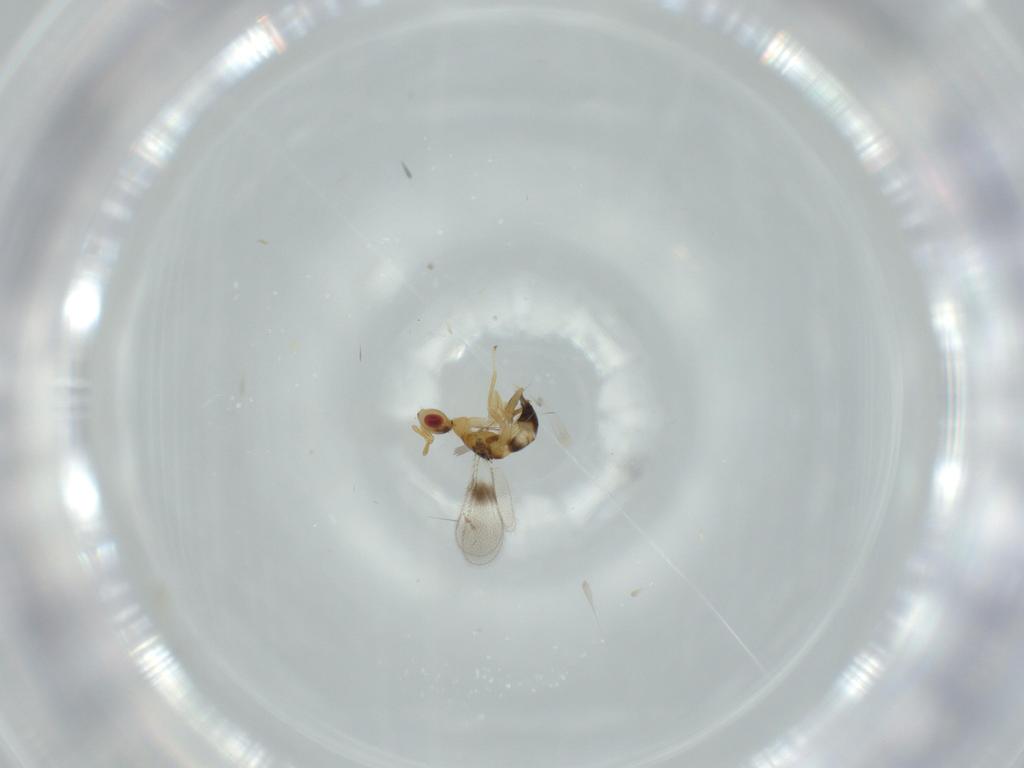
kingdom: Animalia
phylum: Arthropoda
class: Insecta
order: Hymenoptera
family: Torymidae
